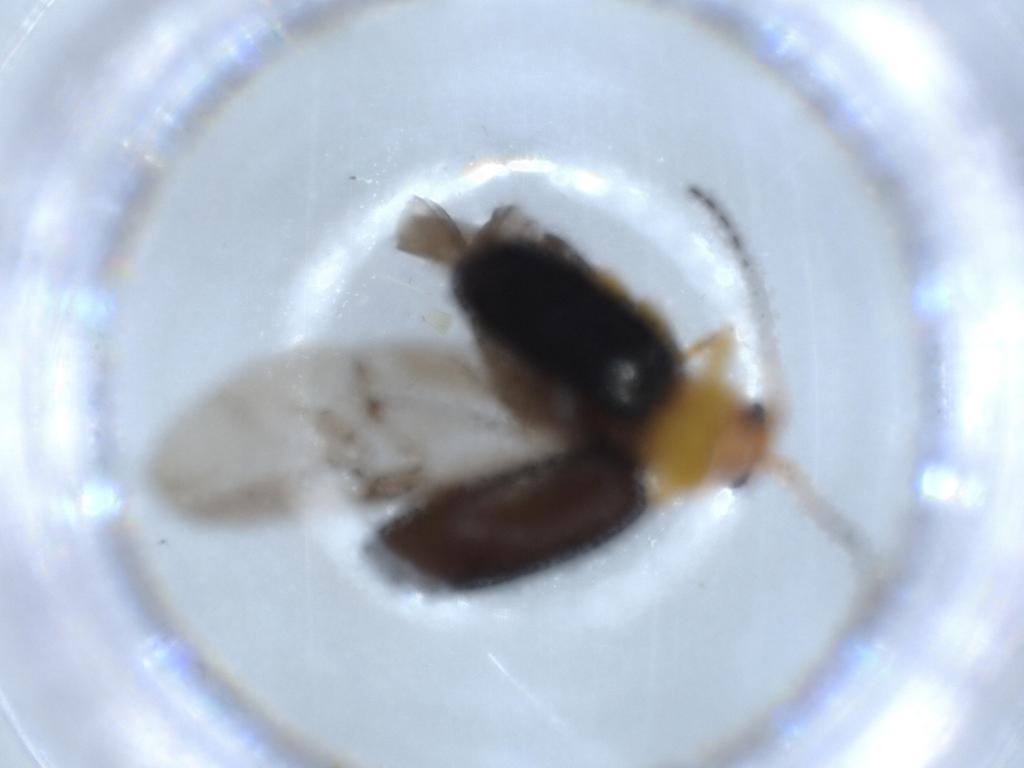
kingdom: Animalia
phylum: Arthropoda
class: Insecta
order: Coleoptera
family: Chrysomelidae
